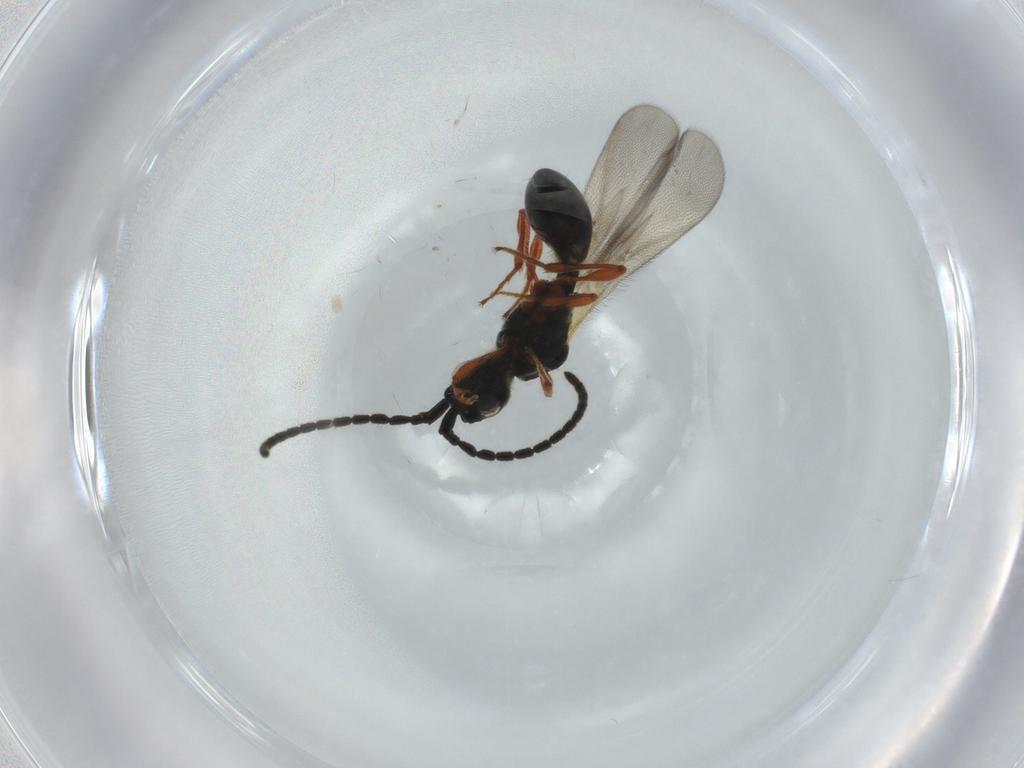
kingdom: Animalia
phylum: Arthropoda
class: Insecta
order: Hymenoptera
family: Diapriidae
